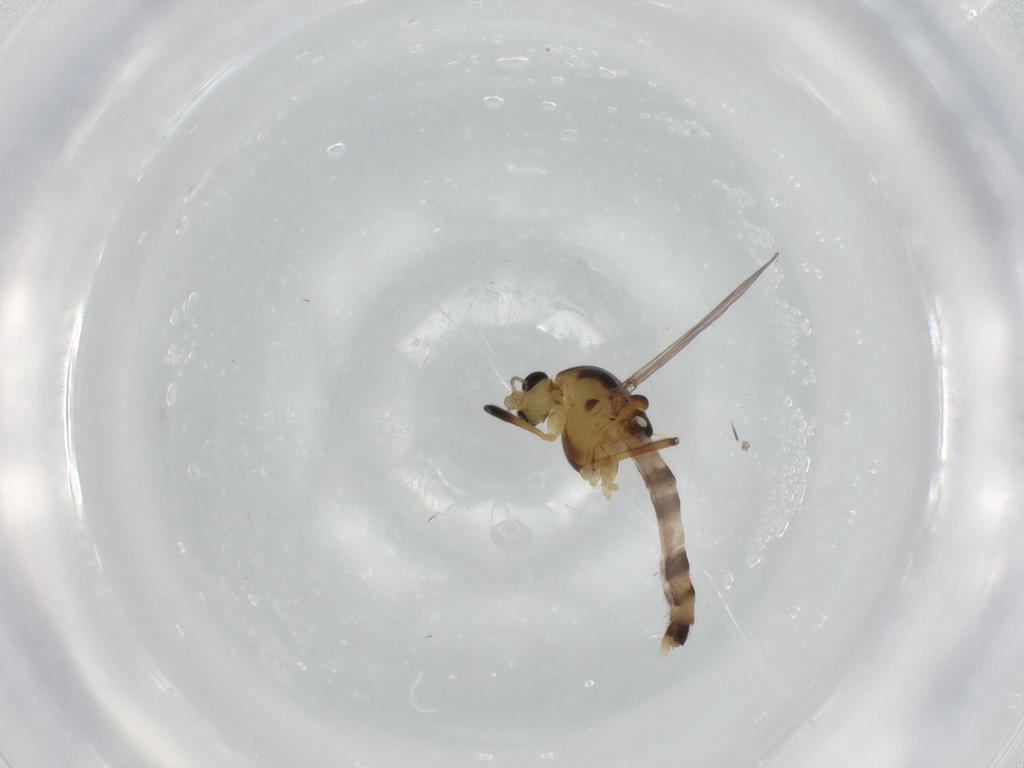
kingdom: Animalia
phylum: Arthropoda
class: Insecta
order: Diptera
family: Chironomidae
